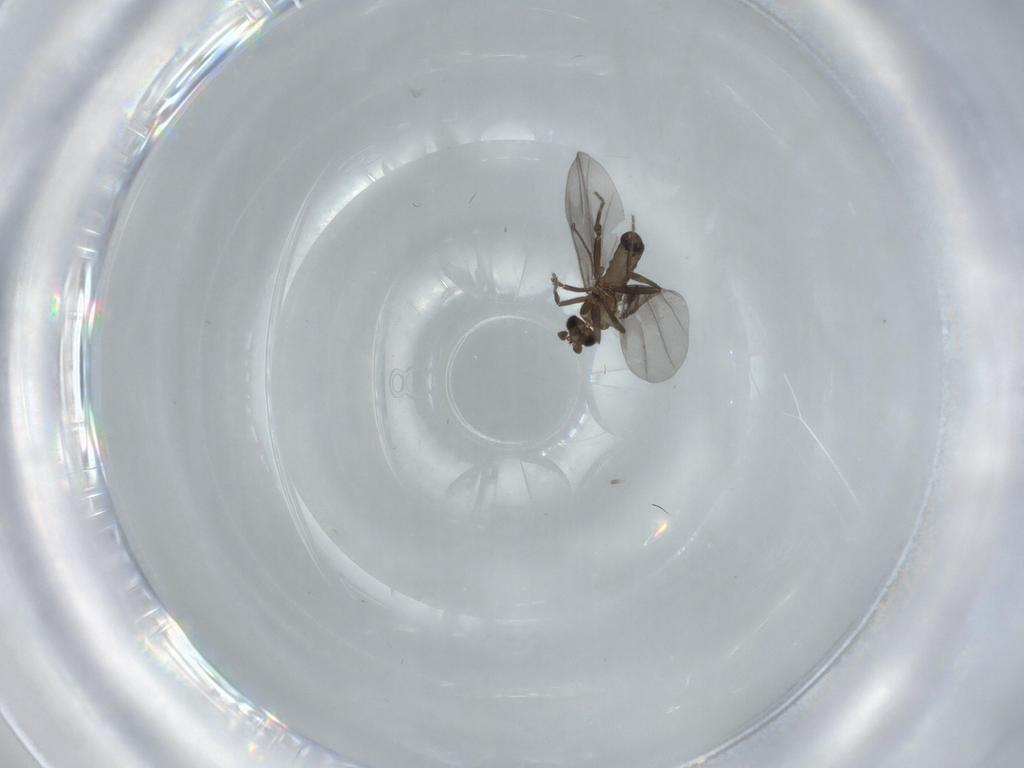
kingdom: Animalia
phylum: Arthropoda
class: Insecta
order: Diptera
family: Phoridae
